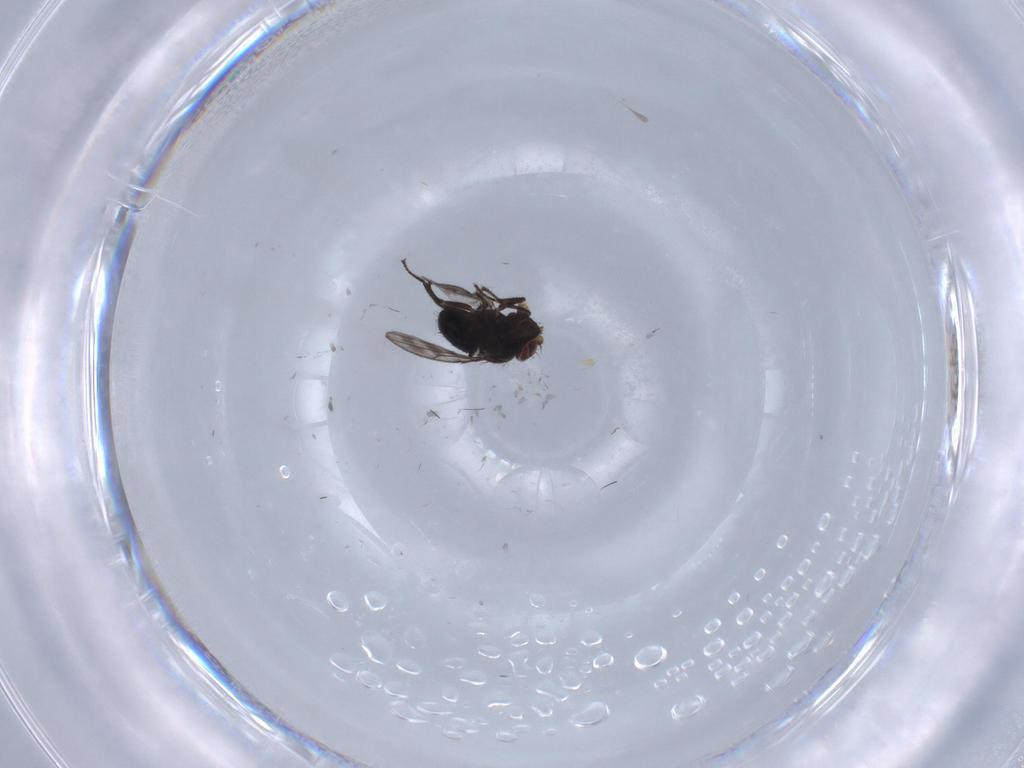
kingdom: Animalia
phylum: Arthropoda
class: Insecta
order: Diptera
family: Ephydridae
